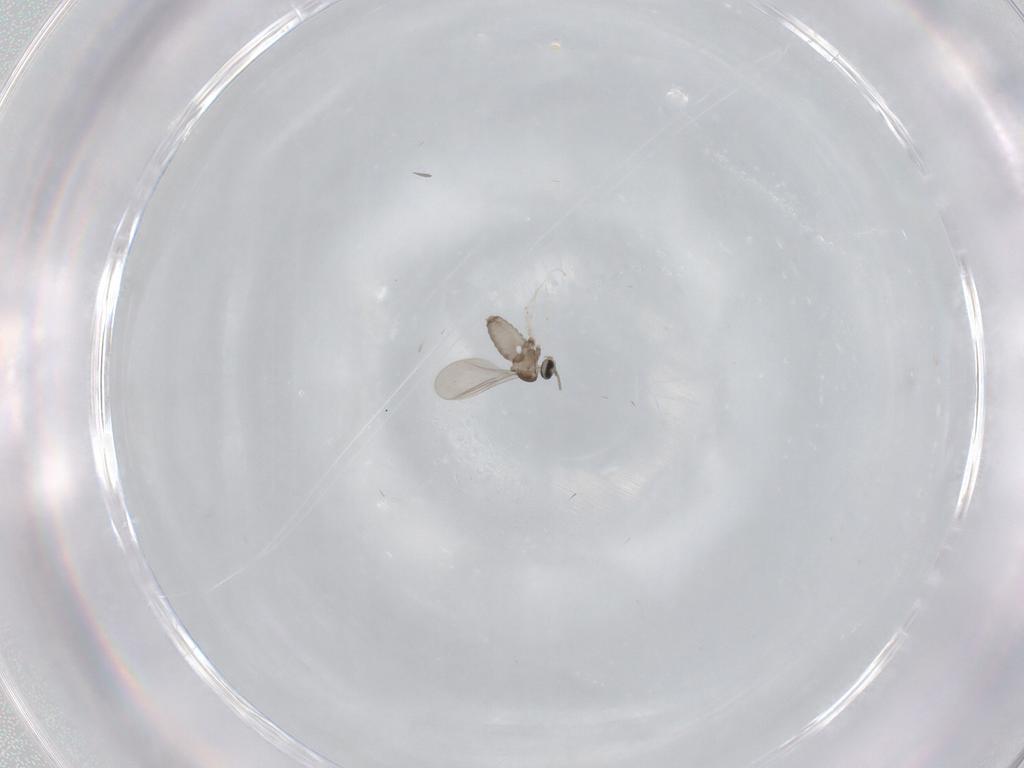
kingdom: Animalia
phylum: Arthropoda
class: Insecta
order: Diptera
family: Cecidomyiidae
